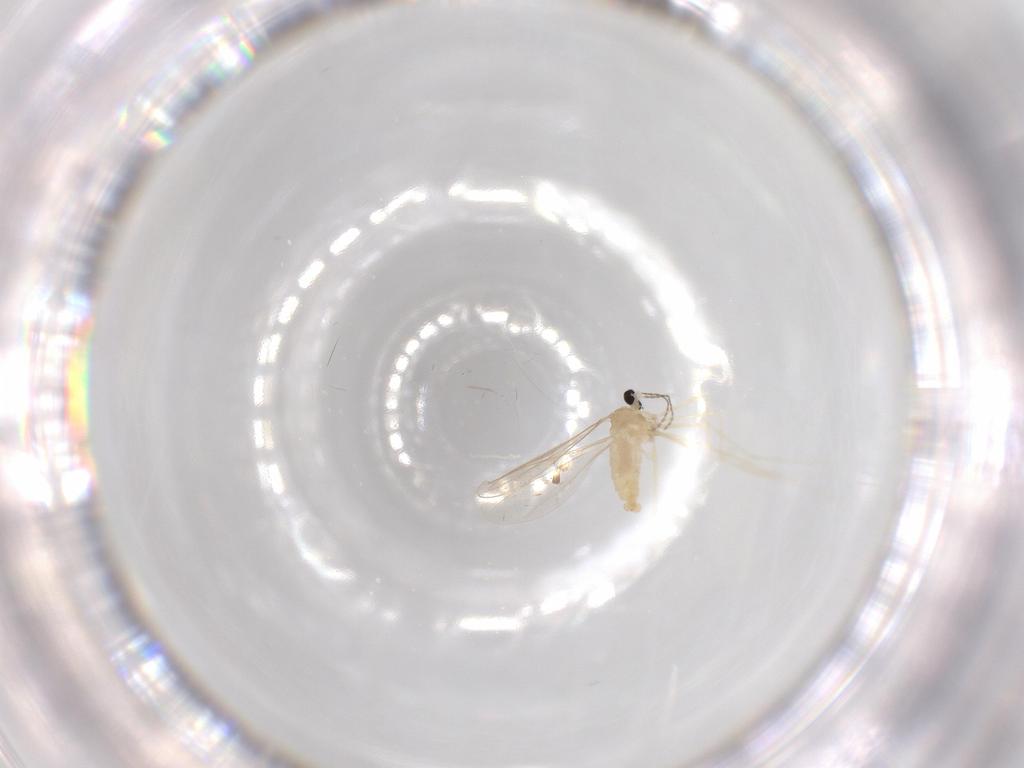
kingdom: Animalia
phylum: Arthropoda
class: Insecta
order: Diptera
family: Cecidomyiidae
